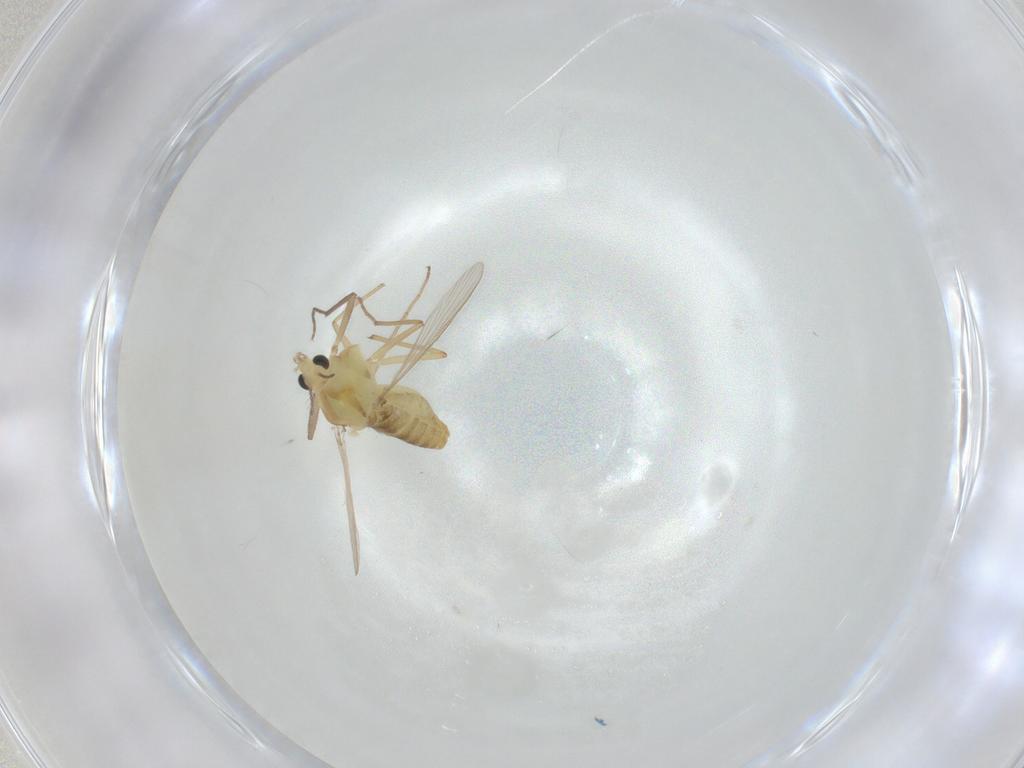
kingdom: Animalia
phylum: Arthropoda
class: Insecta
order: Diptera
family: Chironomidae
